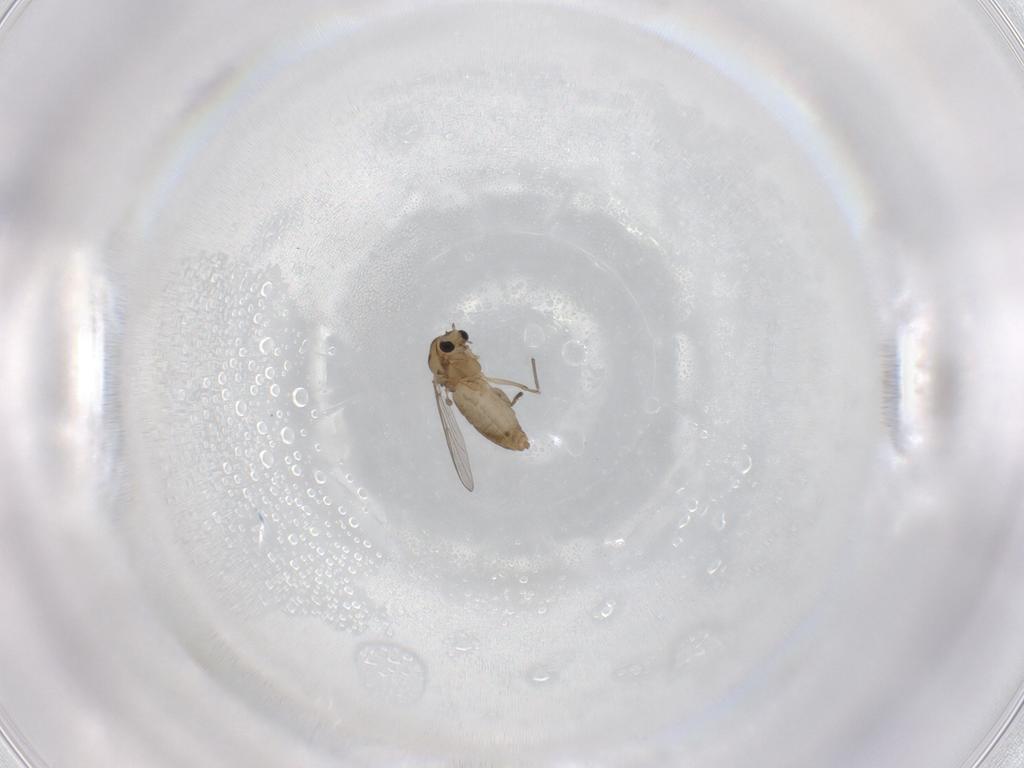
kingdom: Animalia
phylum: Arthropoda
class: Insecta
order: Diptera
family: Chironomidae
